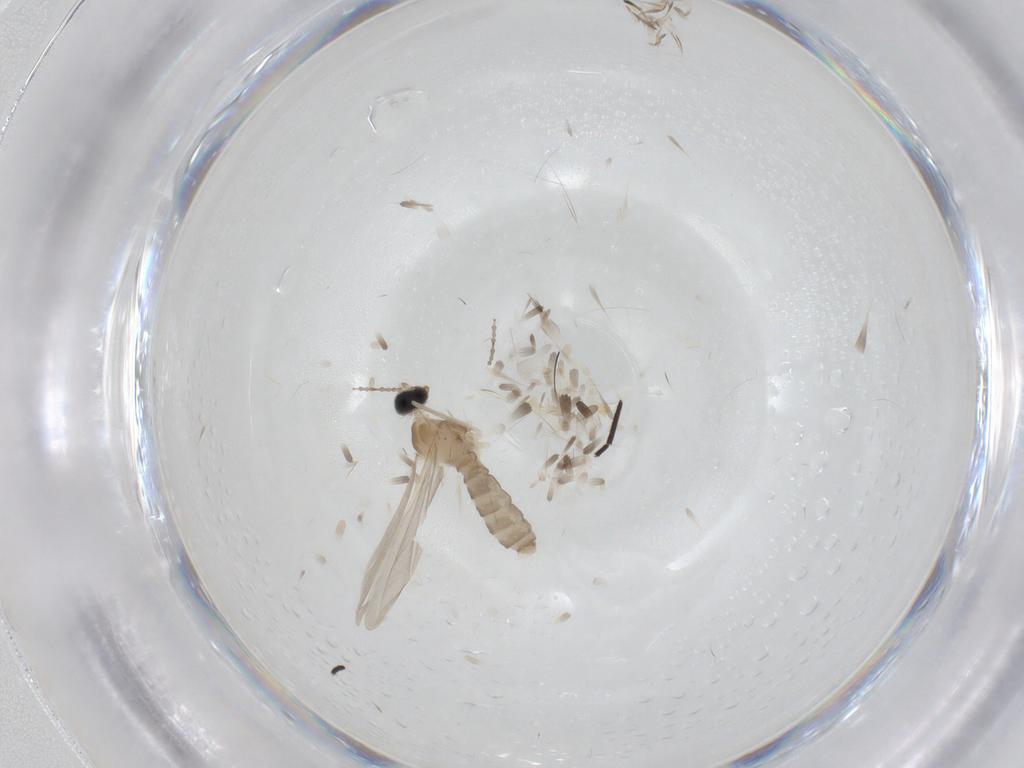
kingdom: Animalia
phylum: Arthropoda
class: Insecta
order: Diptera
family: Cecidomyiidae
